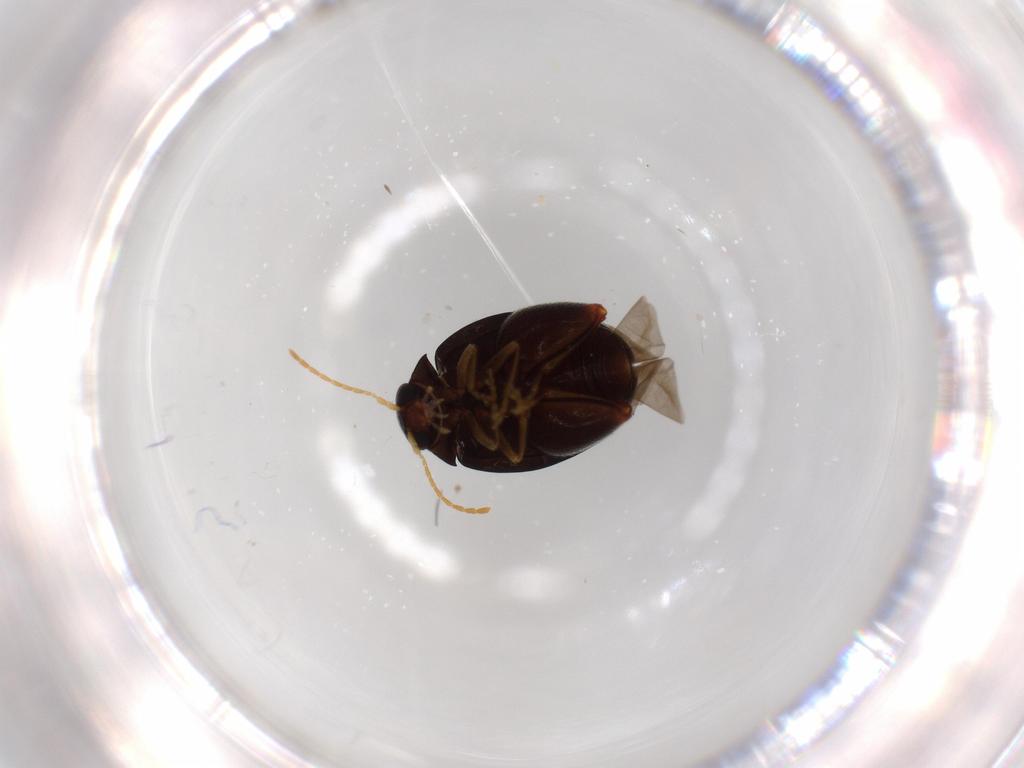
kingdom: Animalia
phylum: Arthropoda
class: Insecta
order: Coleoptera
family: Chrysomelidae
